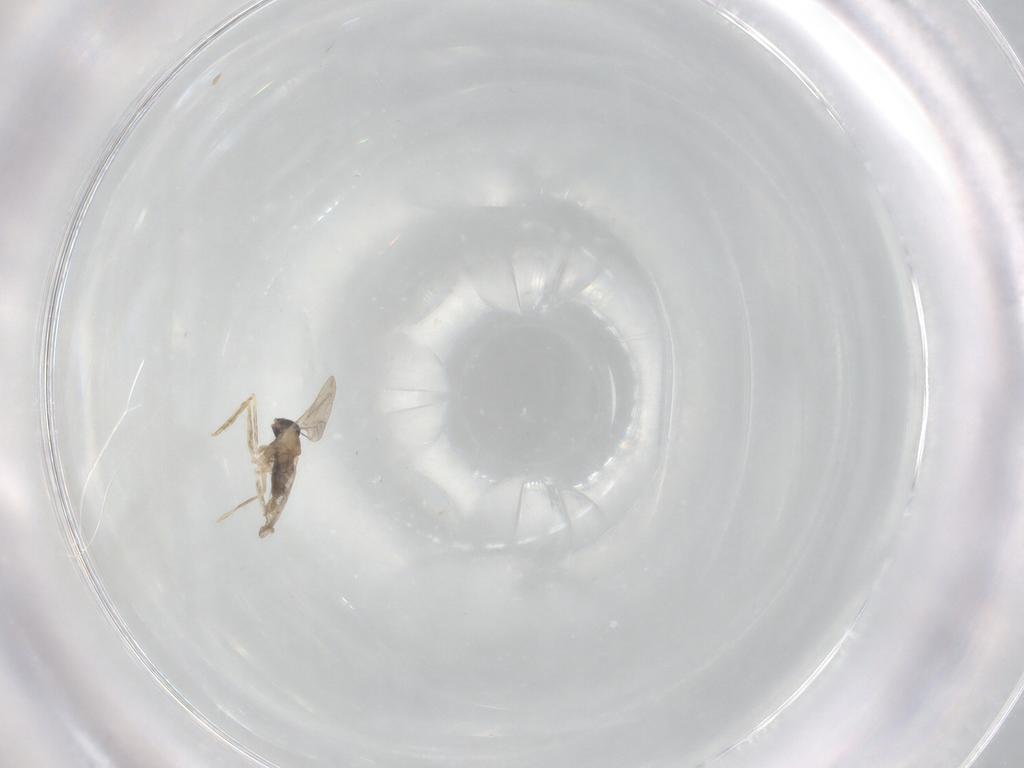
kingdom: Animalia
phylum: Arthropoda
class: Insecta
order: Diptera
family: Cecidomyiidae
